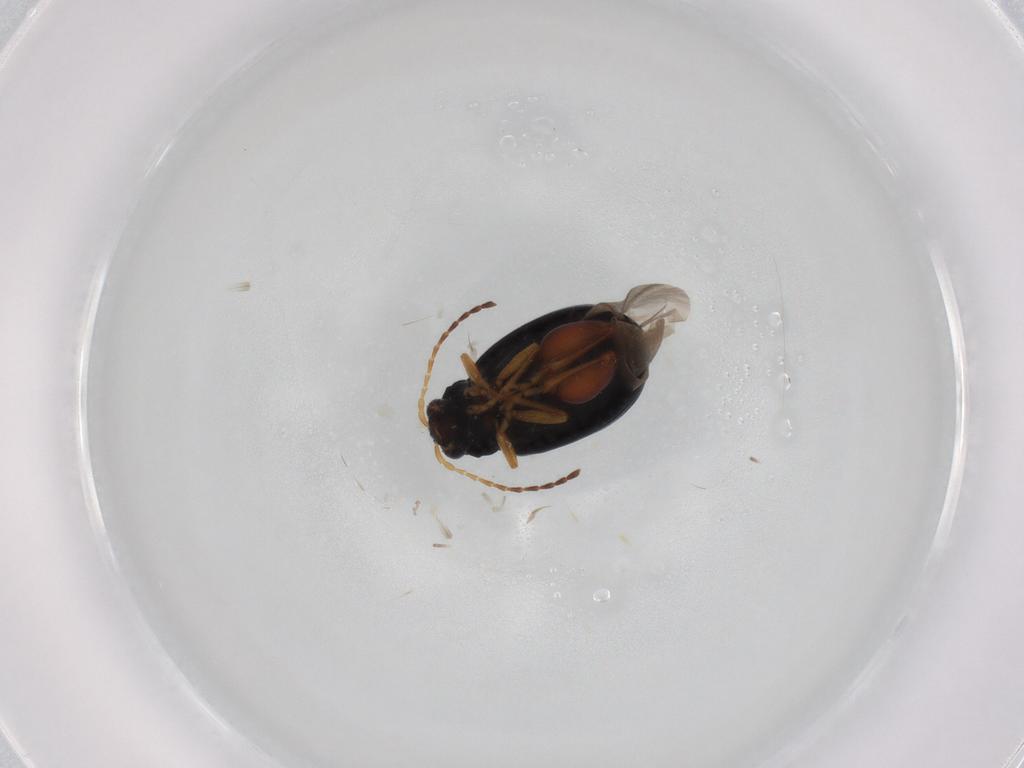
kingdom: Animalia
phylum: Arthropoda
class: Insecta
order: Coleoptera
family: Chrysomelidae
